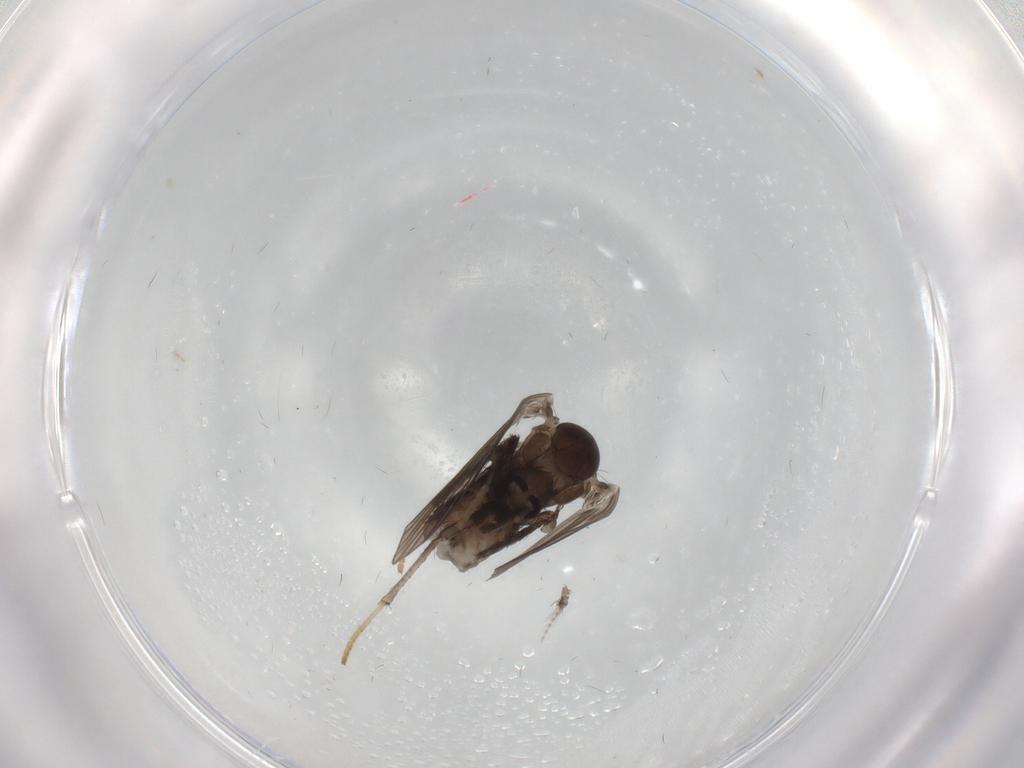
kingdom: Animalia
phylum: Arthropoda
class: Insecta
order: Diptera
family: Psychodidae
